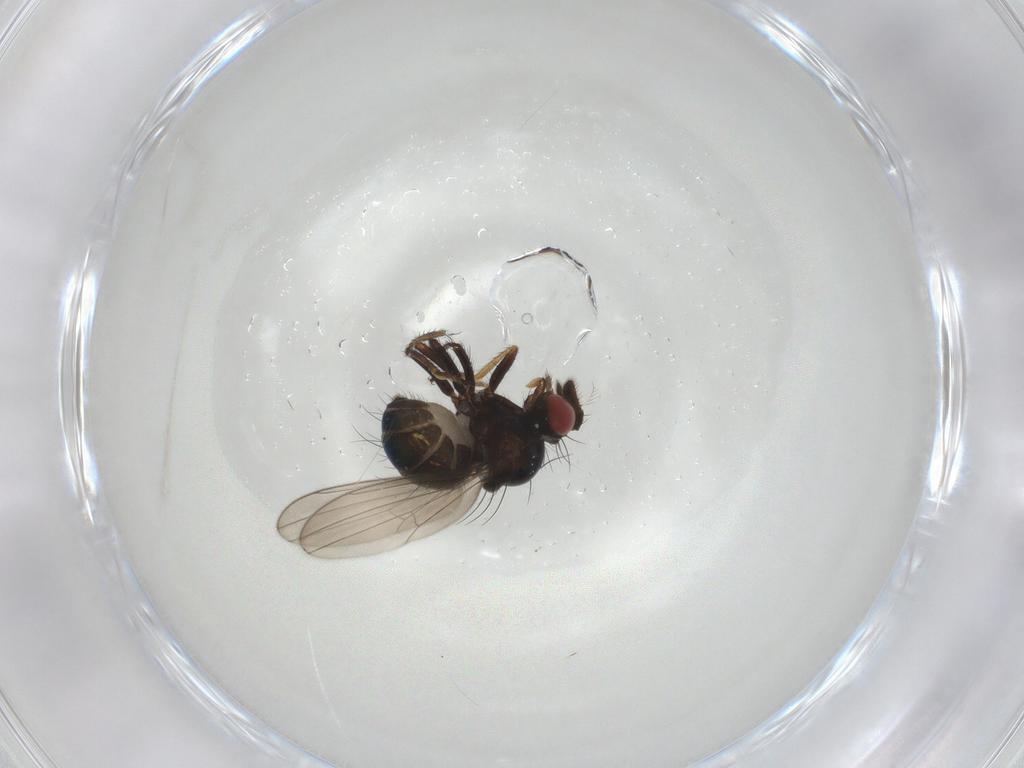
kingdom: Animalia
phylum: Arthropoda
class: Insecta
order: Diptera
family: Ephydridae
